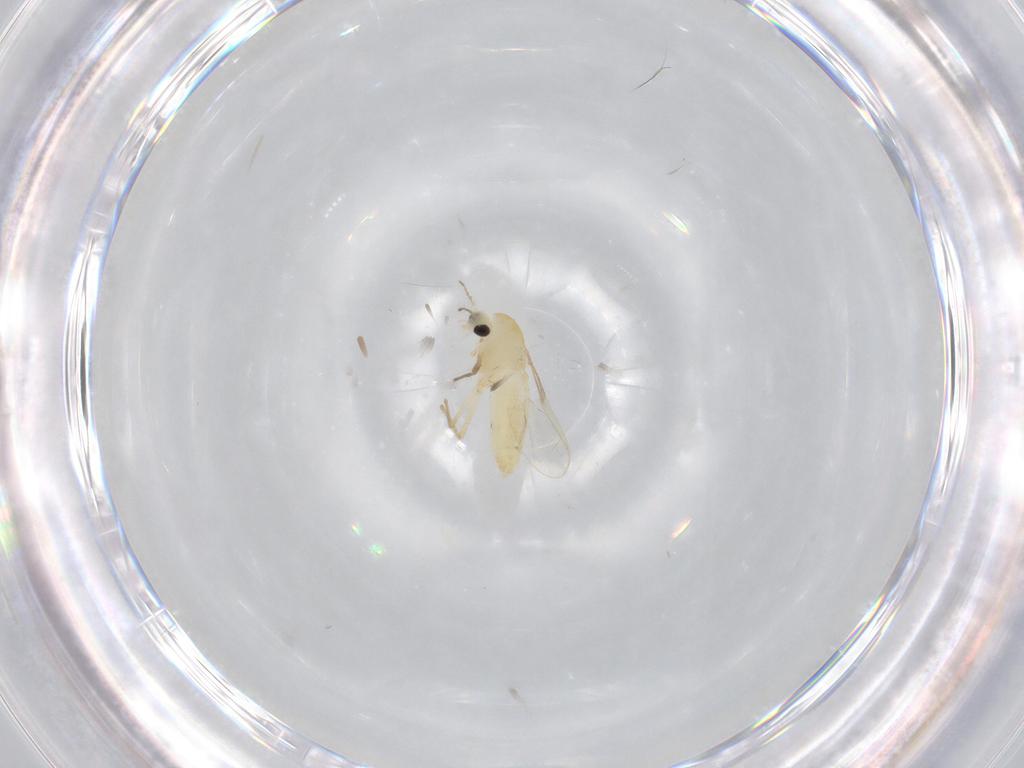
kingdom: Animalia
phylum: Arthropoda
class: Insecta
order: Diptera
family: Chironomidae
